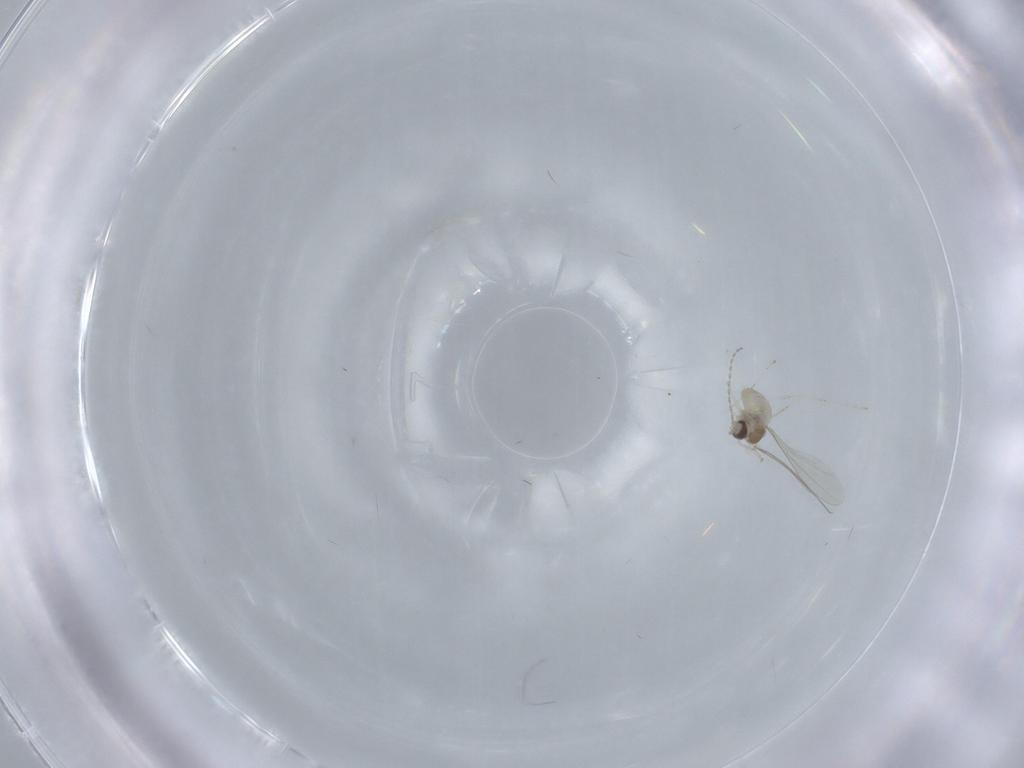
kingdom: Animalia
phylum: Arthropoda
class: Insecta
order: Diptera
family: Cecidomyiidae
